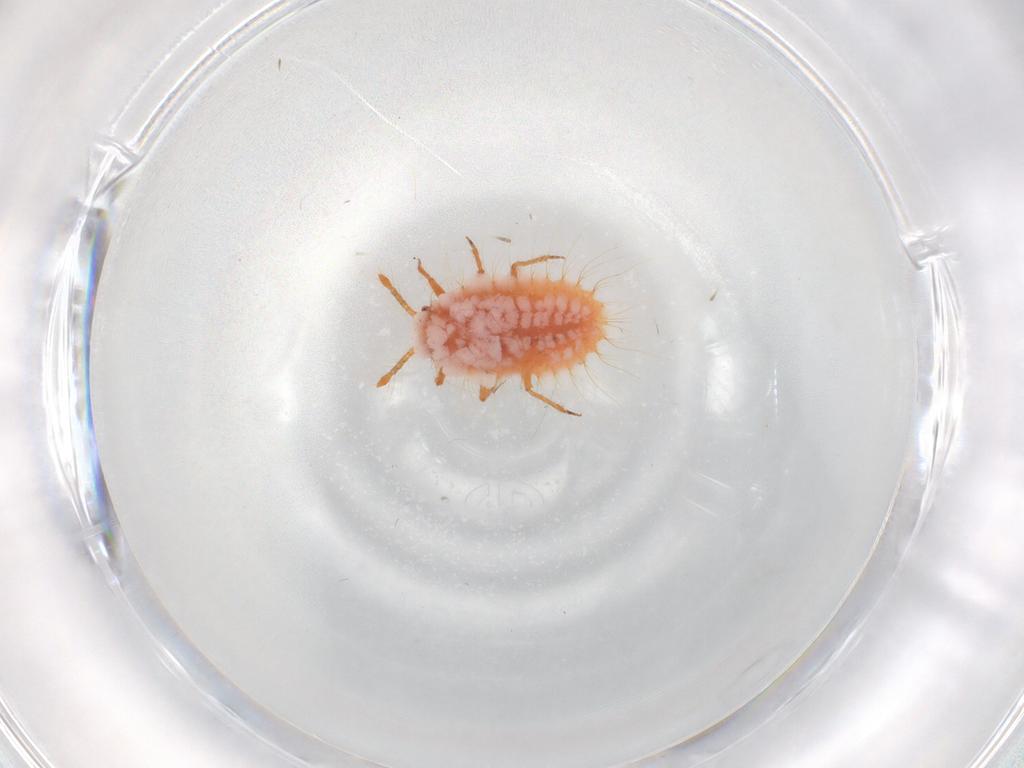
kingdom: Animalia
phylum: Arthropoda
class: Insecta
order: Hemiptera
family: Coccoidea_incertae_sedis
